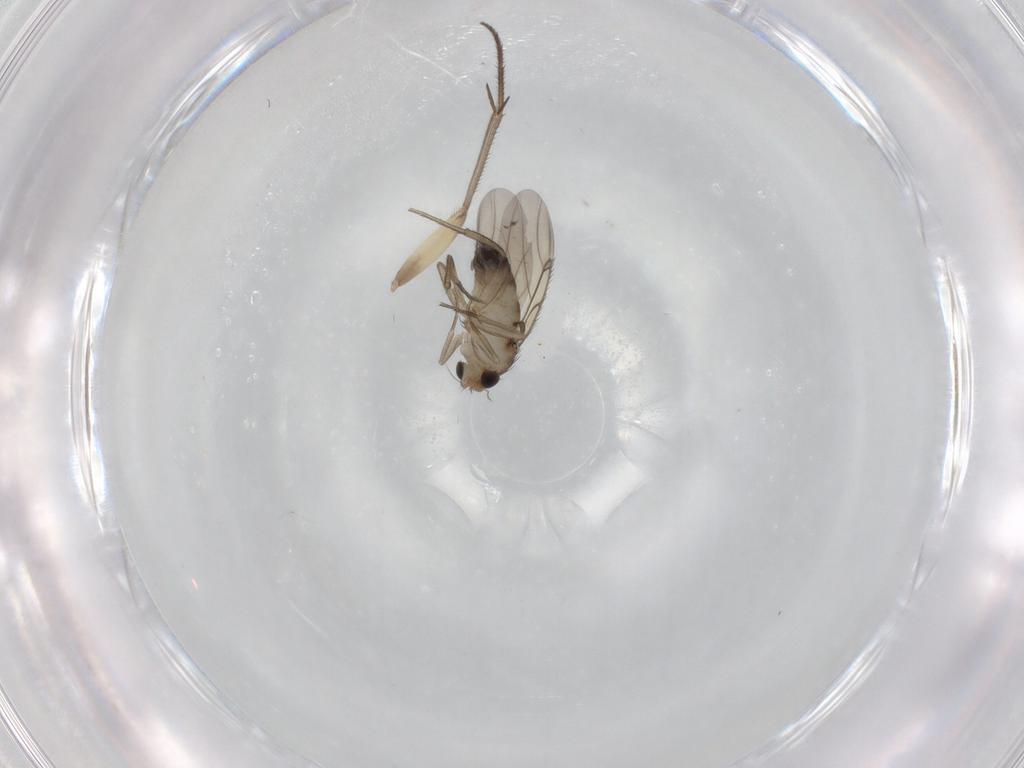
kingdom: Animalia
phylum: Arthropoda
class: Insecta
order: Diptera
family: Phoridae
